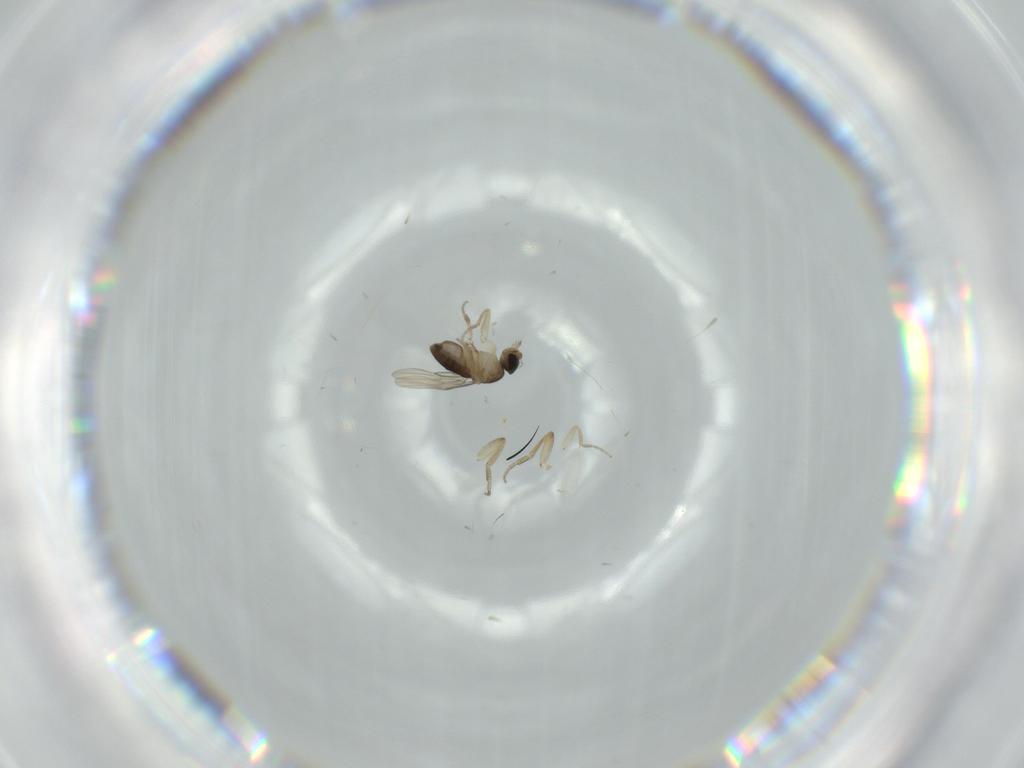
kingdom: Animalia
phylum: Arthropoda
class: Insecta
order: Diptera
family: Phoridae
